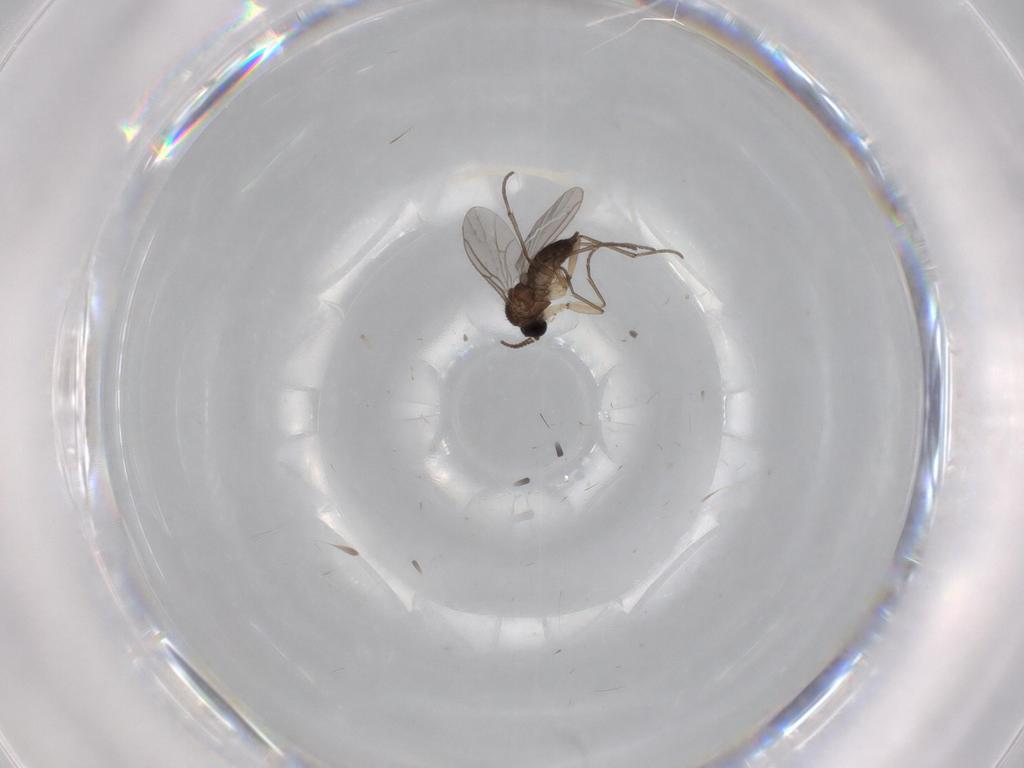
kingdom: Animalia
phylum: Arthropoda
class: Insecta
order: Diptera
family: Sciaridae
